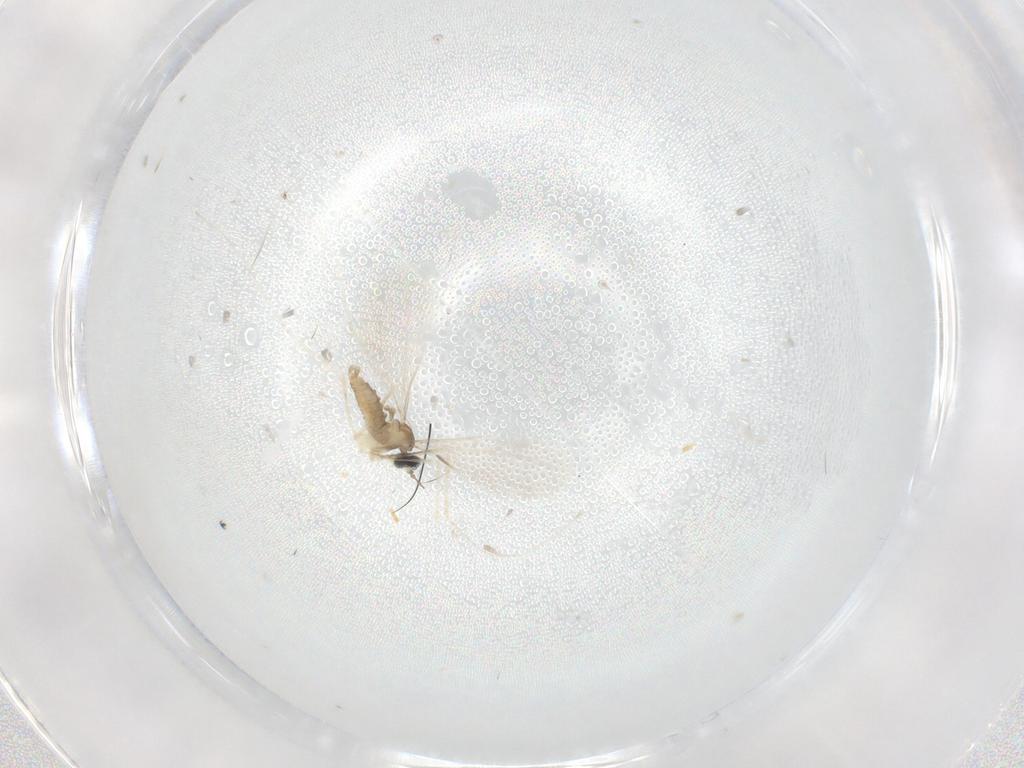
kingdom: Animalia
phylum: Arthropoda
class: Insecta
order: Diptera
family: Cecidomyiidae
